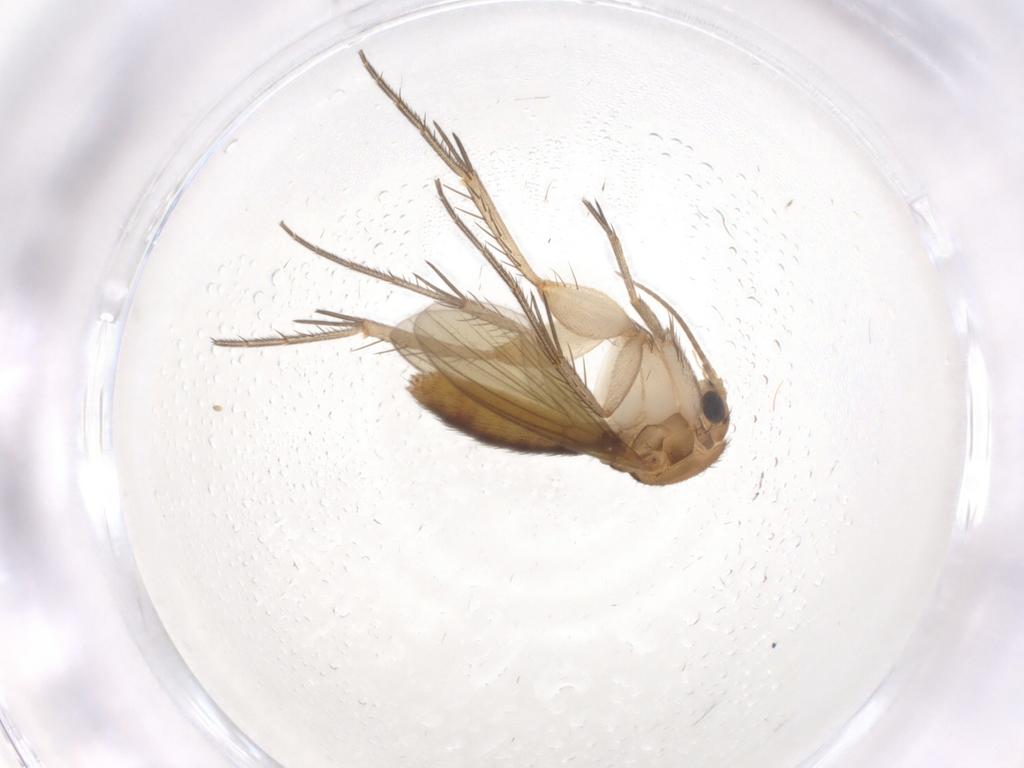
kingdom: Animalia
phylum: Arthropoda
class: Insecta
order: Diptera
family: Mycetophilidae
